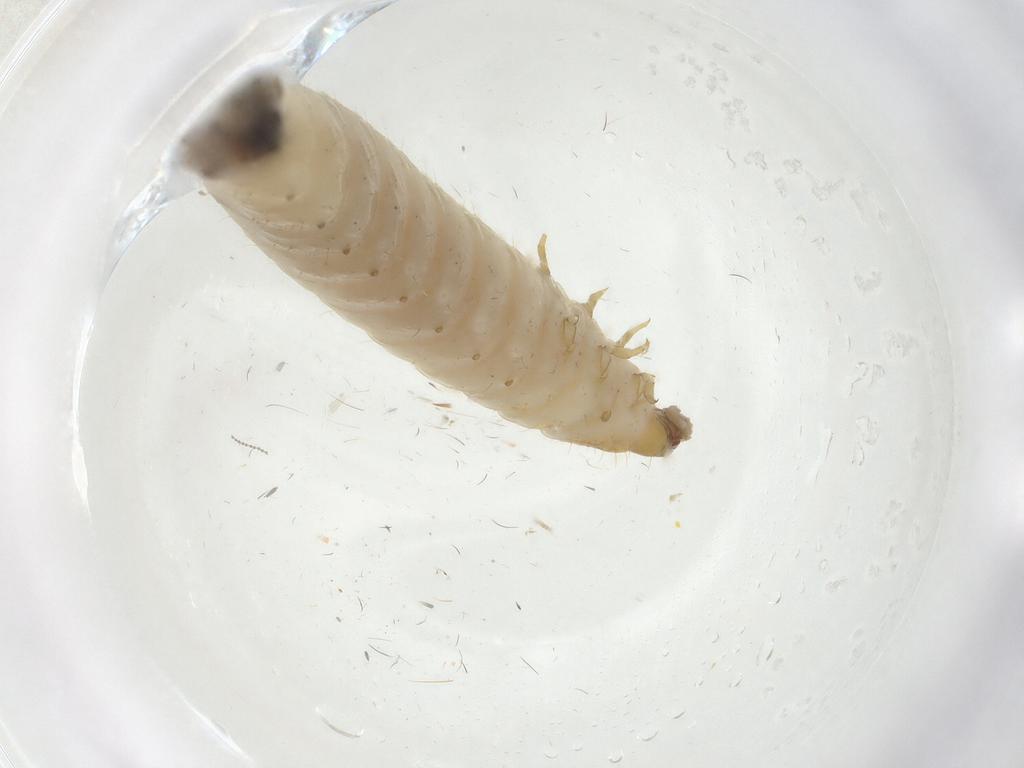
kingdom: Animalia
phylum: Arthropoda
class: Insecta
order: Coleoptera
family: Nitidulidae
